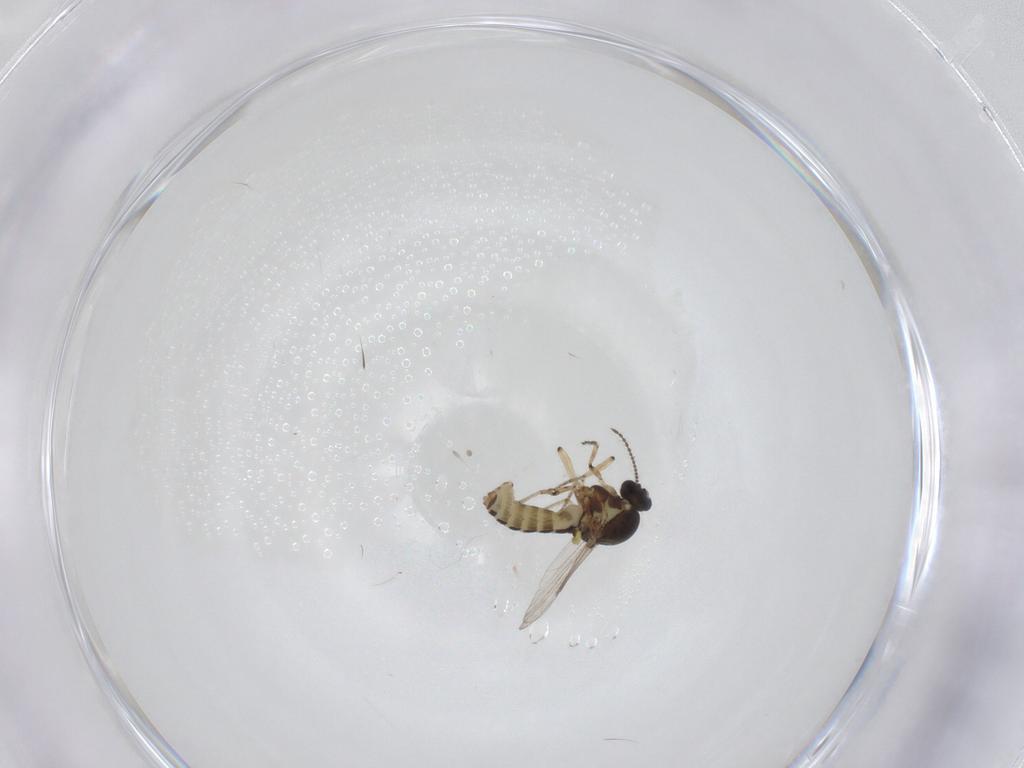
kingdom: Animalia
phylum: Arthropoda
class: Insecta
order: Diptera
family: Ceratopogonidae
